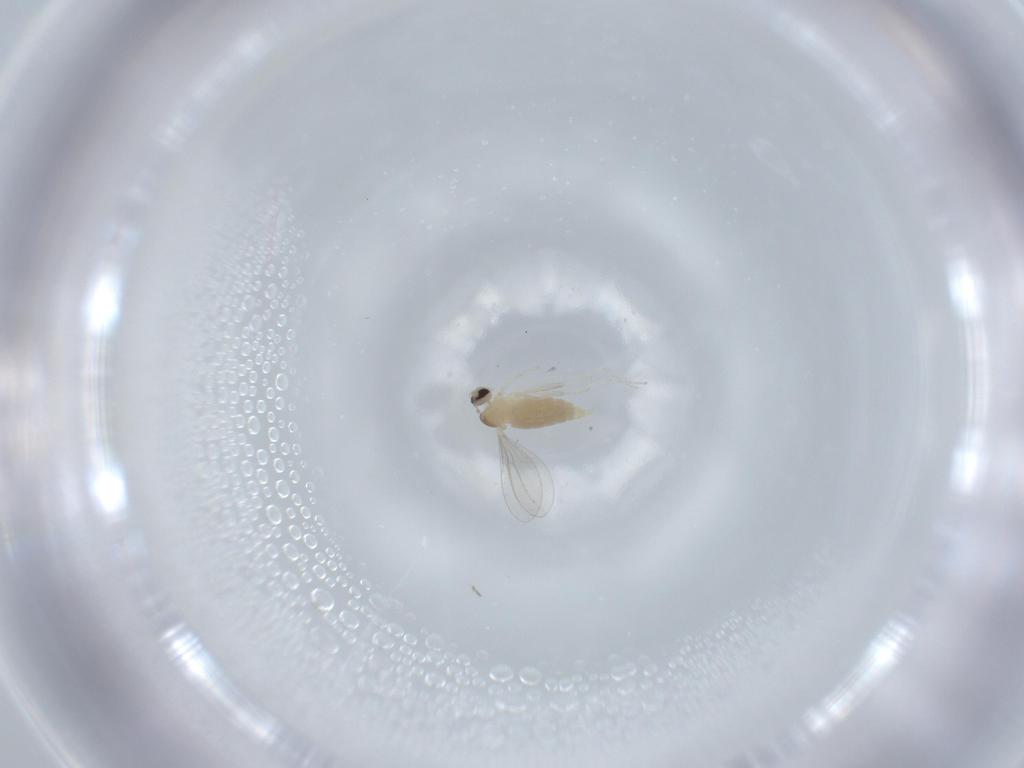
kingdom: Animalia
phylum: Arthropoda
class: Insecta
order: Diptera
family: Cecidomyiidae
